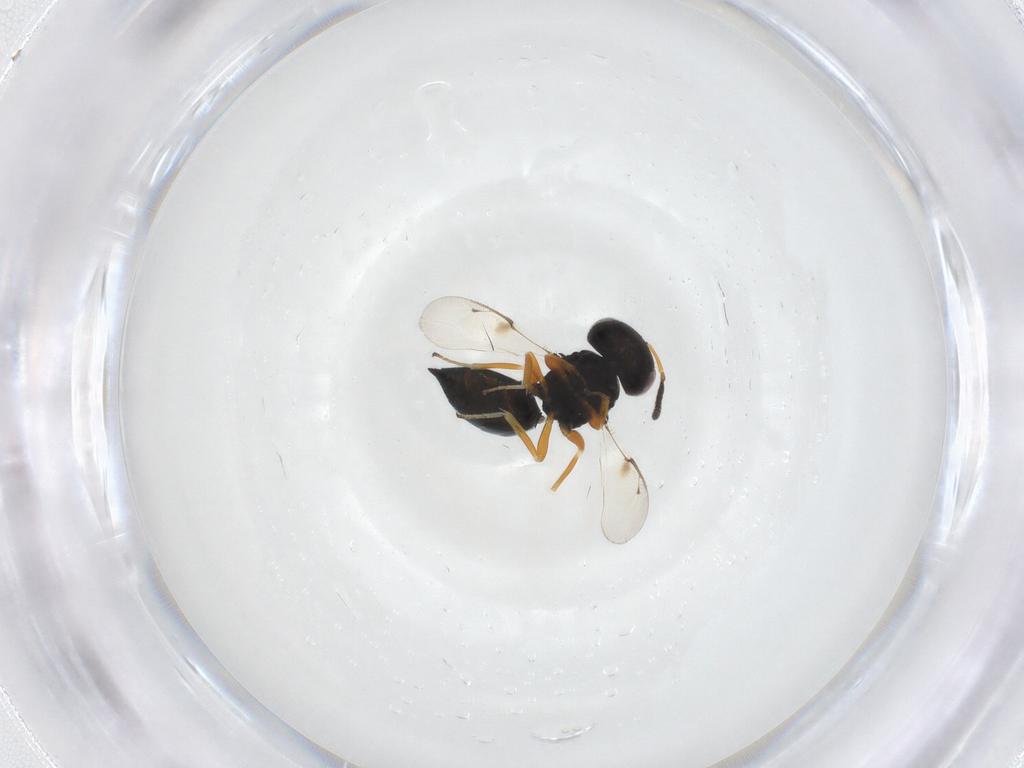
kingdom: Animalia
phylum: Arthropoda
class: Insecta
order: Hymenoptera
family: Pteromalidae
